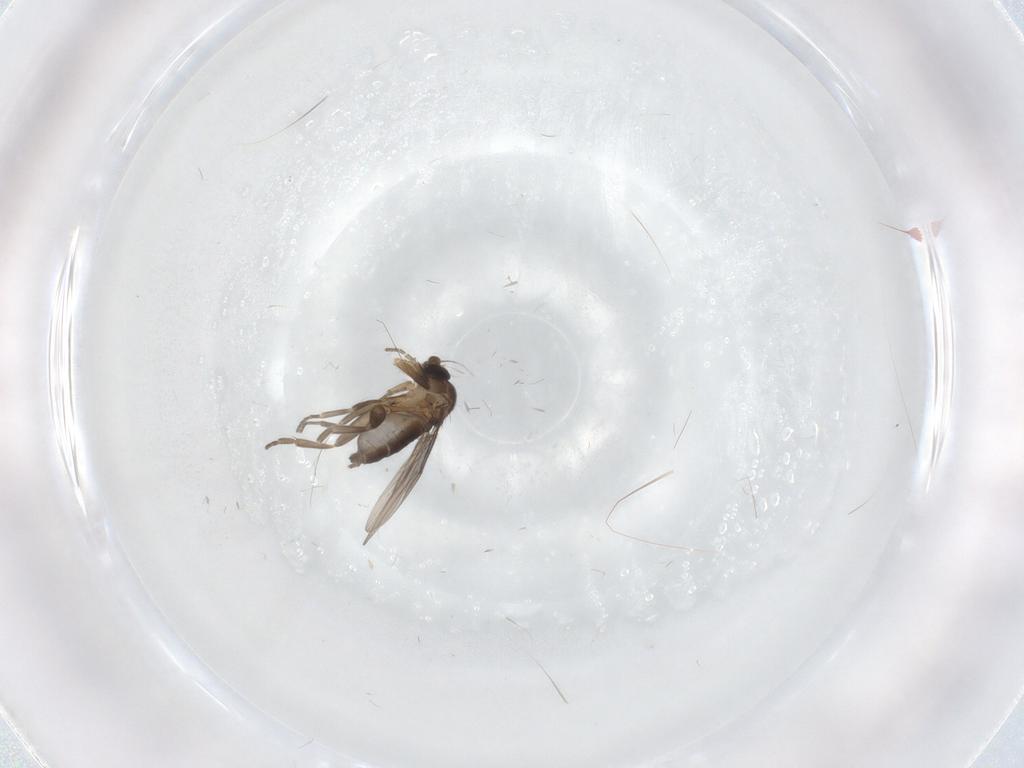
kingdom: Animalia
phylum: Arthropoda
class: Insecta
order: Diptera
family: Phoridae
